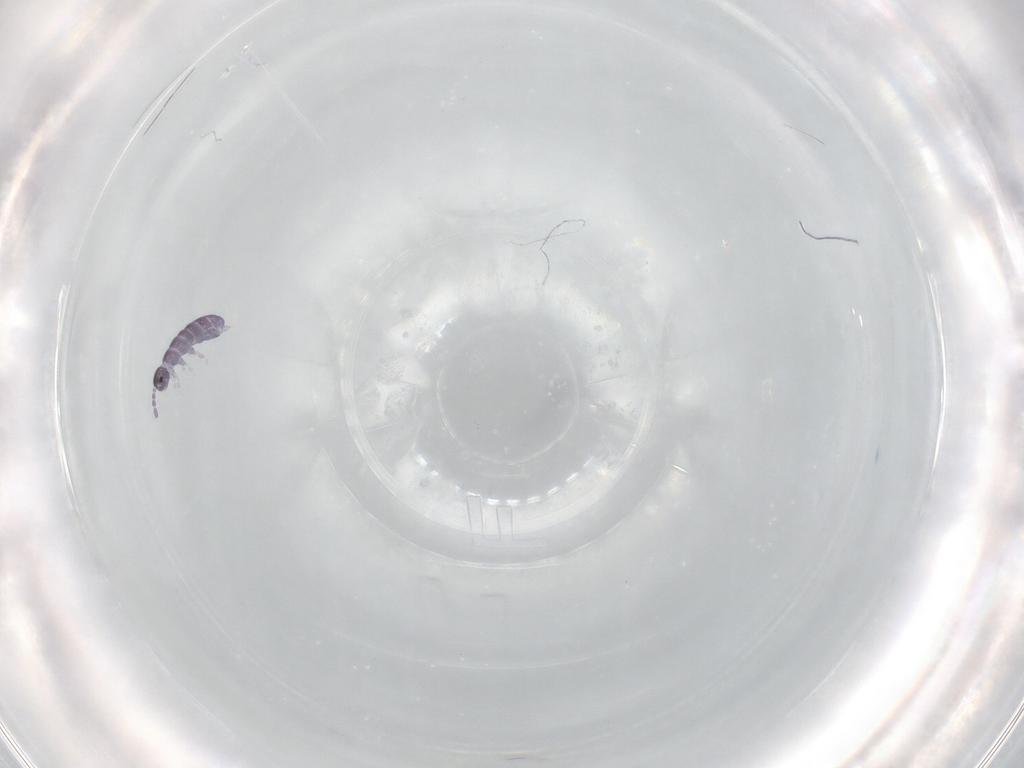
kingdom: Animalia
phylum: Arthropoda
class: Collembola
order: Entomobryomorpha
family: Isotomidae
